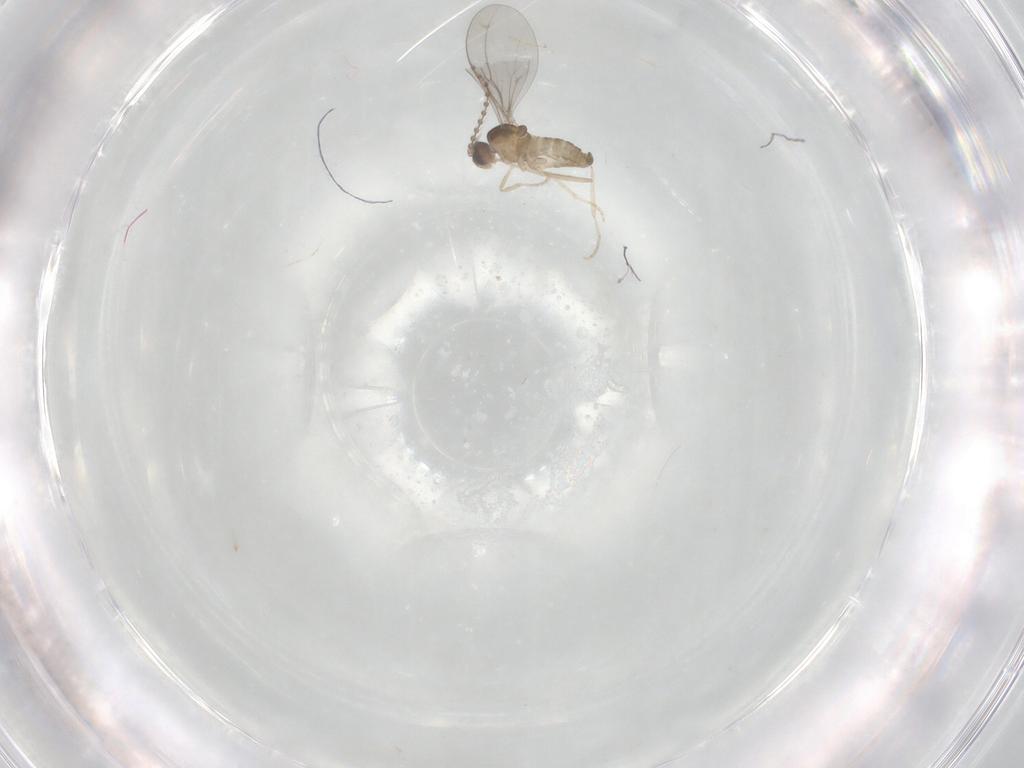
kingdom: Animalia
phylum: Arthropoda
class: Insecta
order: Diptera
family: Cecidomyiidae
